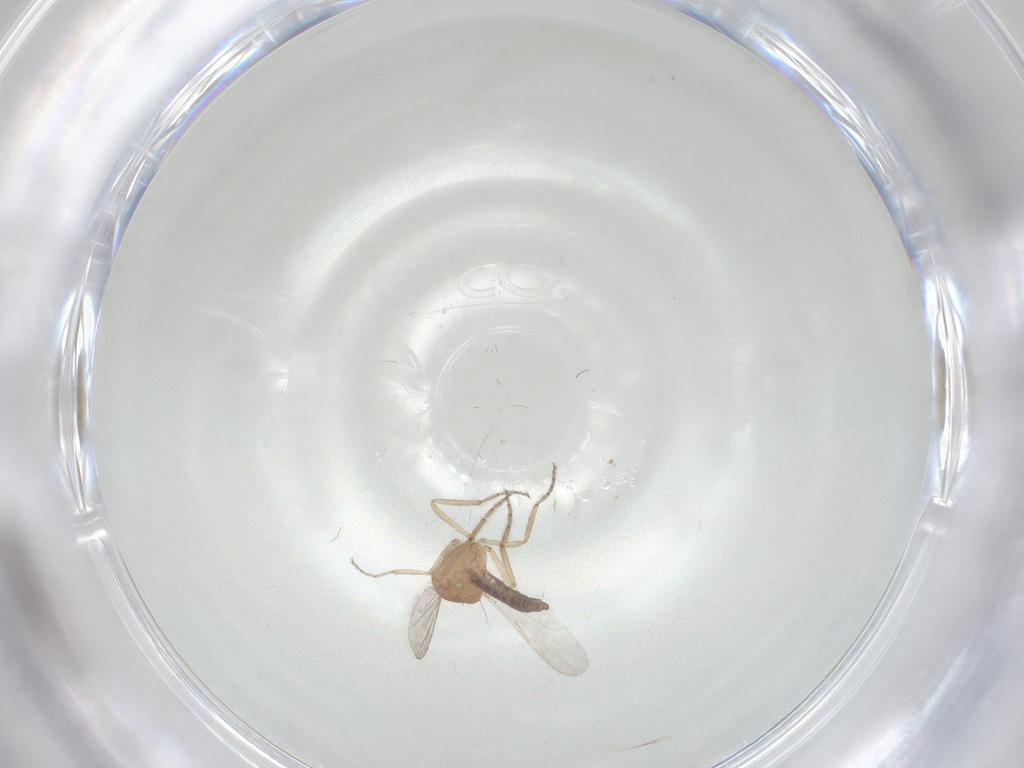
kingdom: Animalia
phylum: Arthropoda
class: Insecta
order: Diptera
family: Ceratopogonidae
